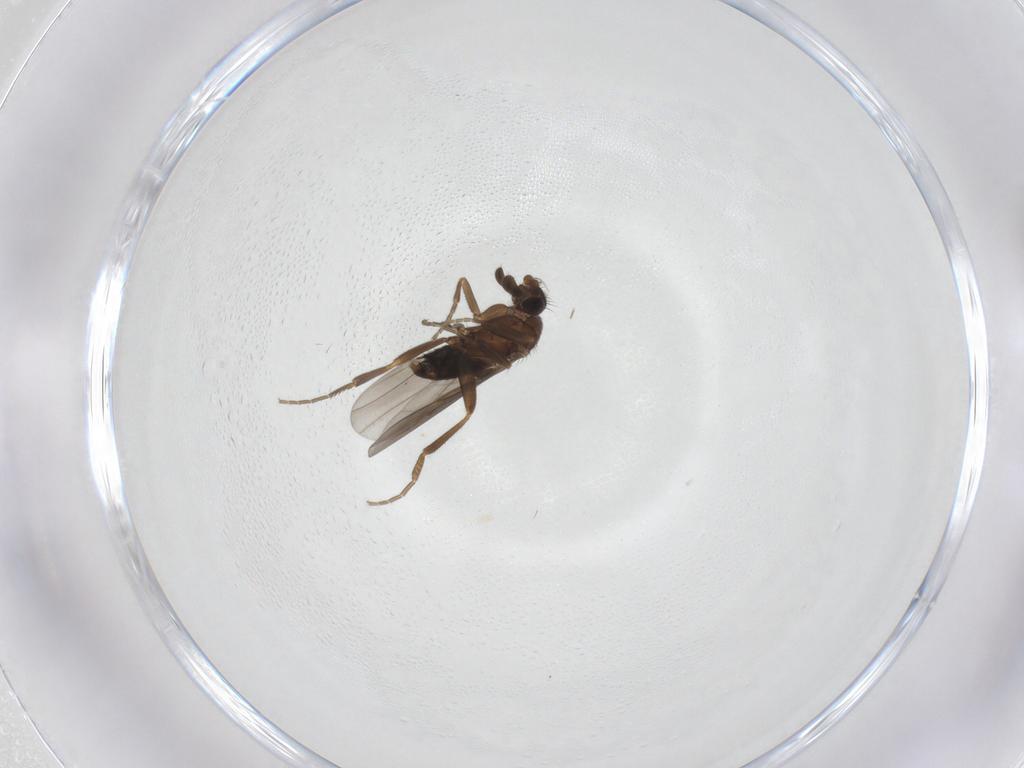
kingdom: Animalia
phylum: Arthropoda
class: Insecta
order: Diptera
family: Phoridae
